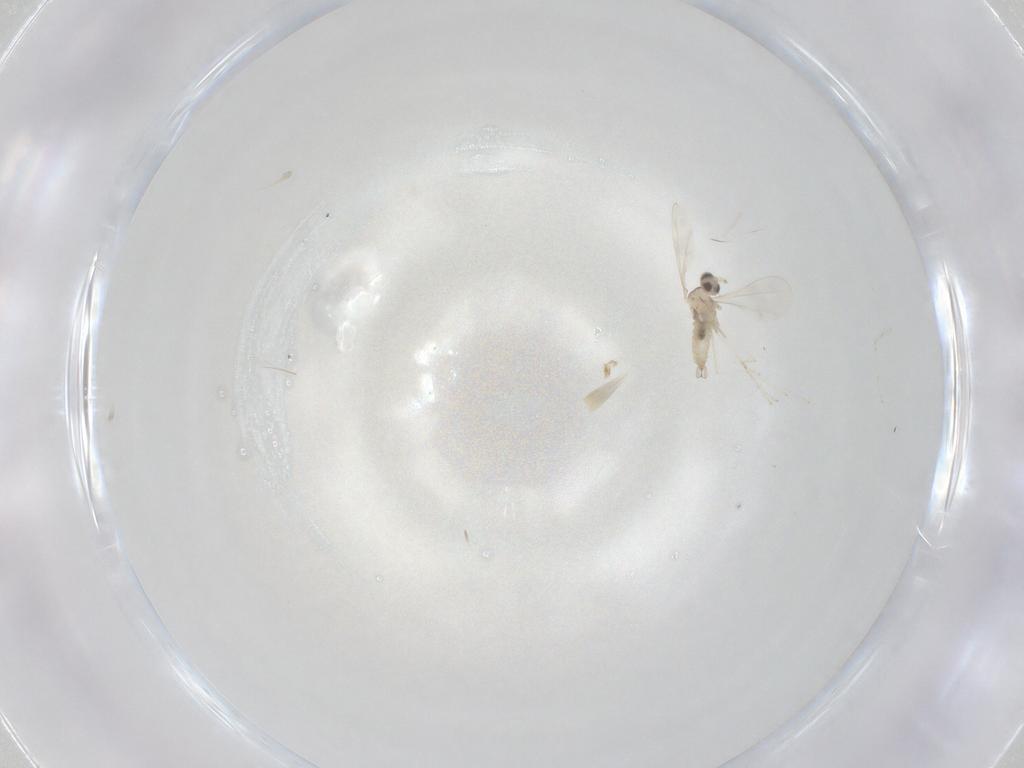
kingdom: Animalia
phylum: Arthropoda
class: Insecta
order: Diptera
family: Cecidomyiidae
